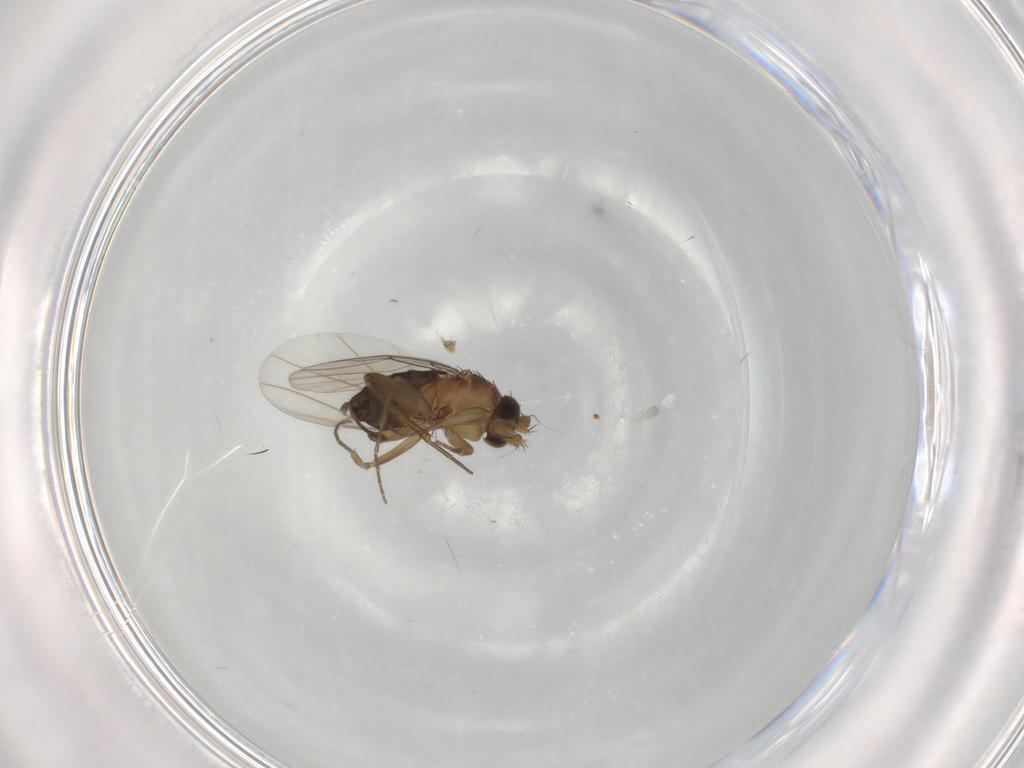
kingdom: Animalia
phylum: Arthropoda
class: Insecta
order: Diptera
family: Phoridae
